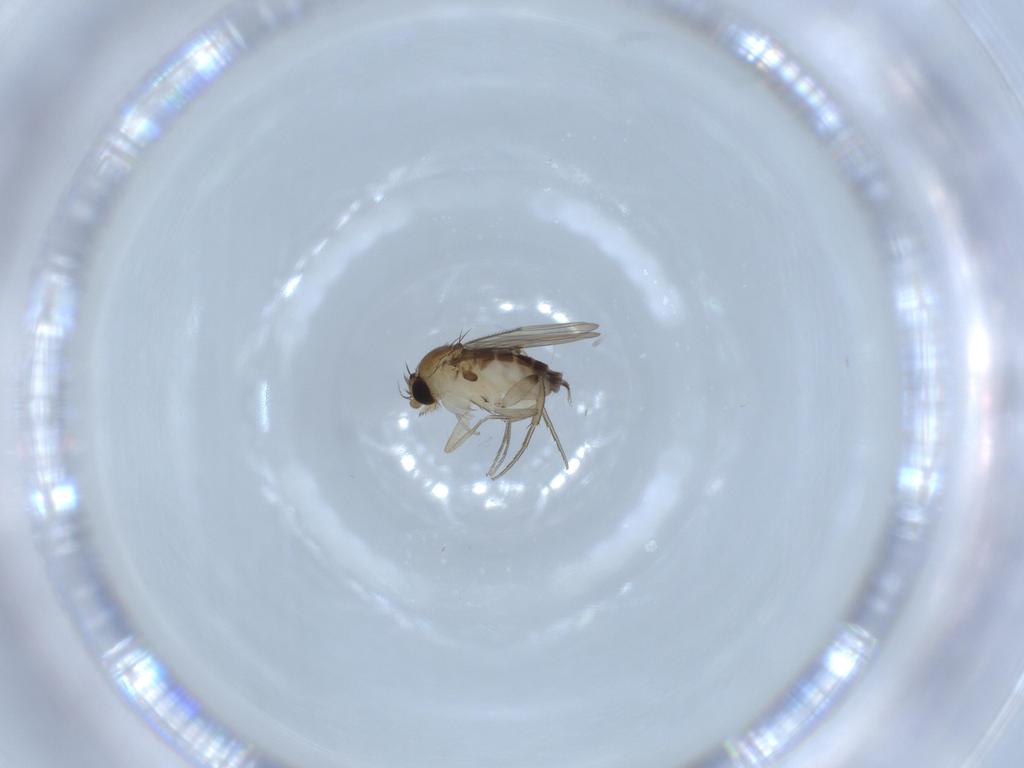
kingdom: Animalia
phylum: Arthropoda
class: Insecta
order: Diptera
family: Phoridae
